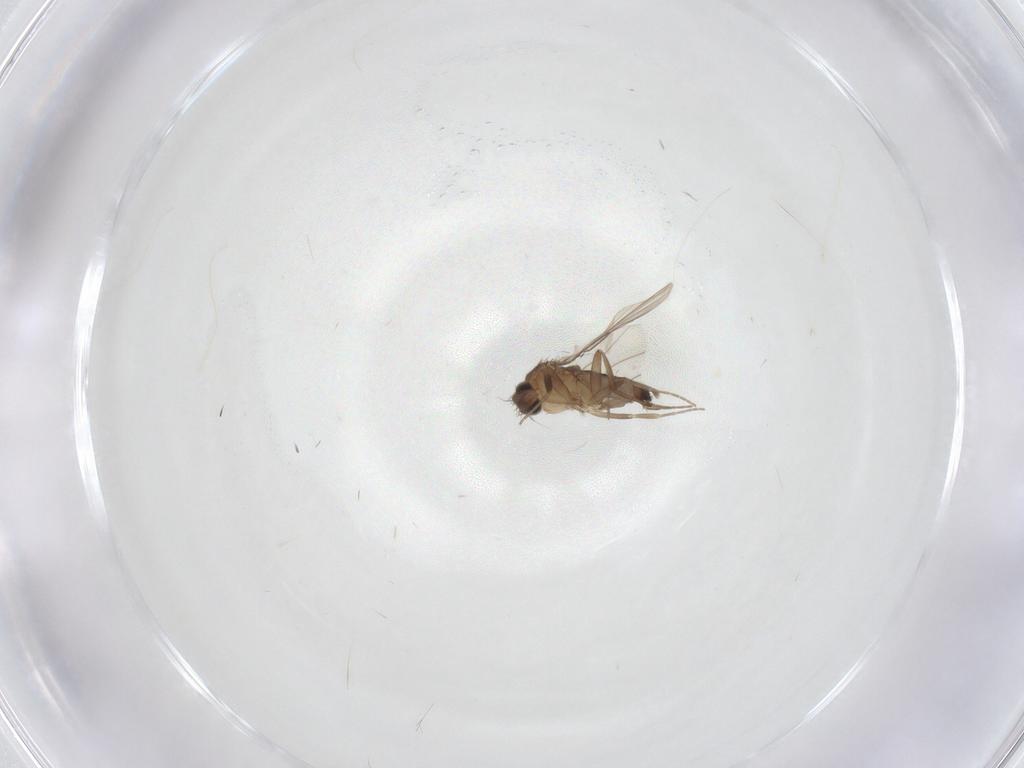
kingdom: Animalia
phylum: Arthropoda
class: Insecta
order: Diptera
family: Phoridae
